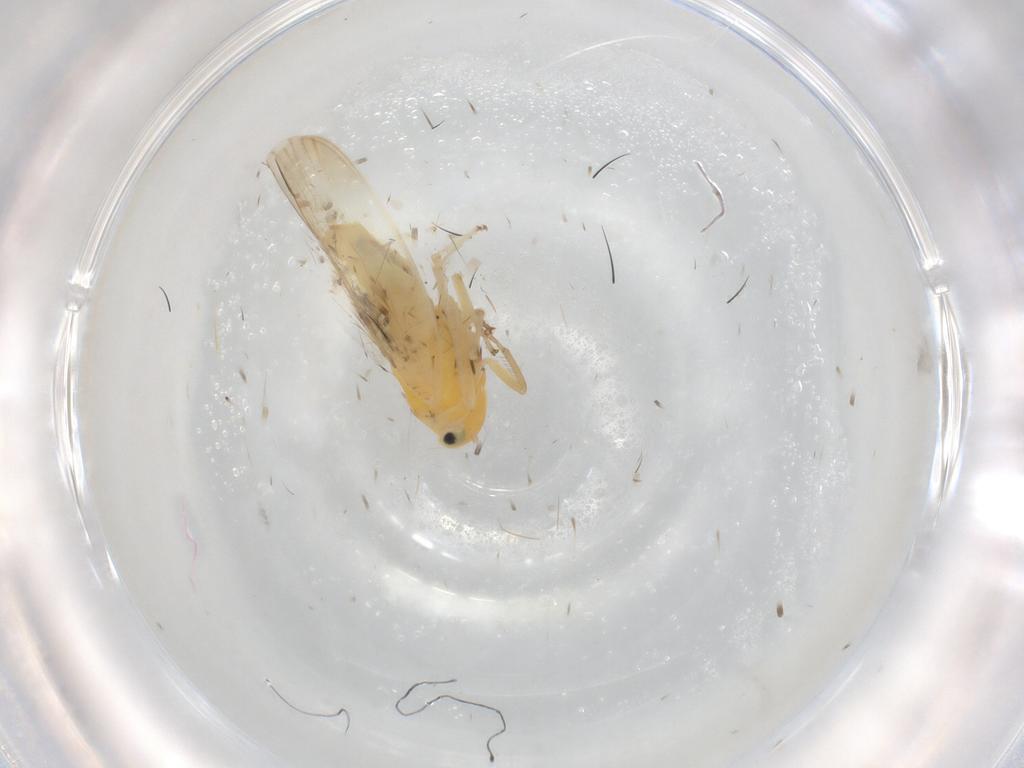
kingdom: Animalia
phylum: Arthropoda
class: Insecta
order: Hemiptera
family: Cicadellidae
